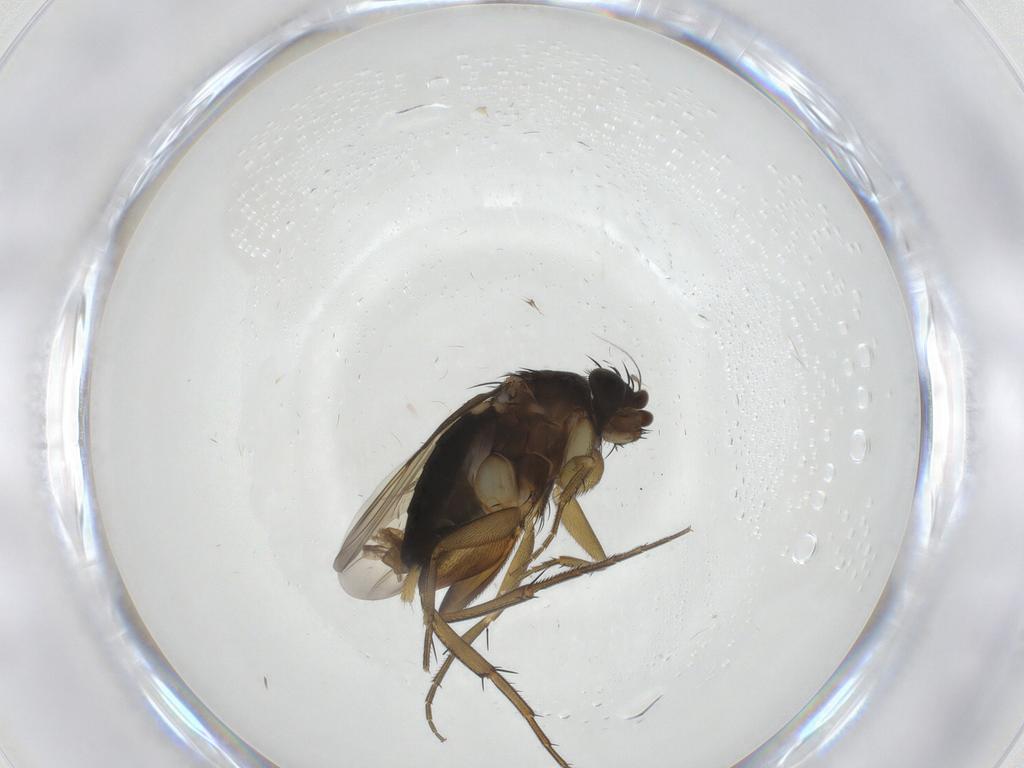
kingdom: Animalia
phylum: Arthropoda
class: Insecta
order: Diptera
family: Phoridae
